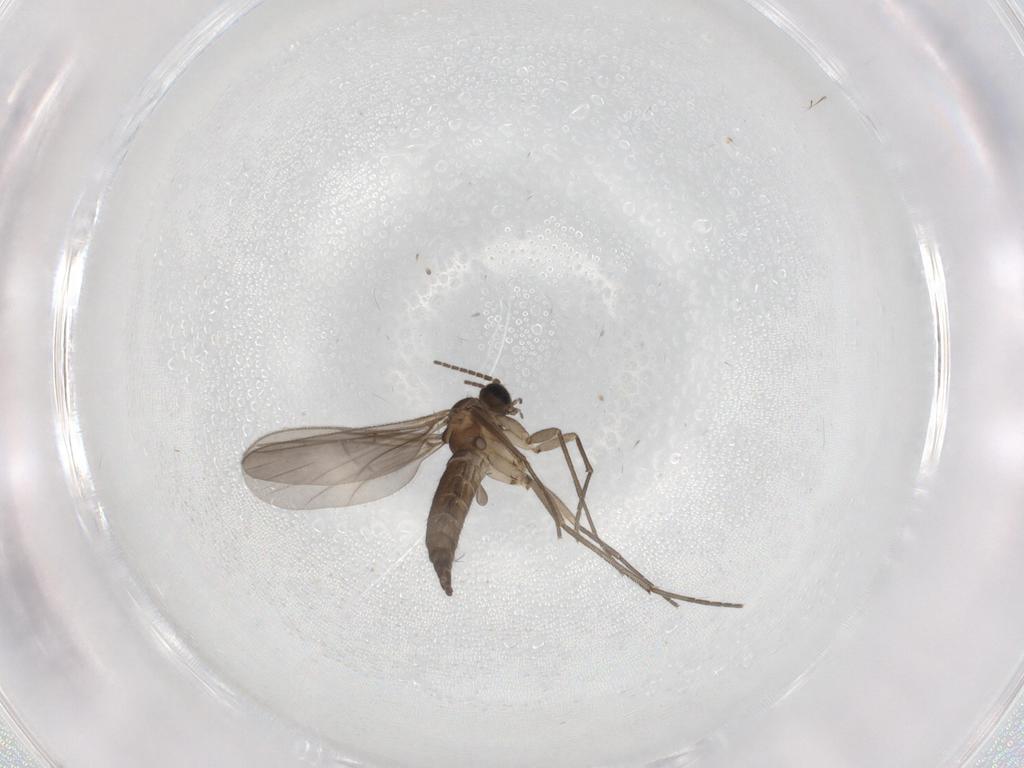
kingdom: Animalia
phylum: Arthropoda
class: Insecta
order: Diptera
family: Sciaridae
